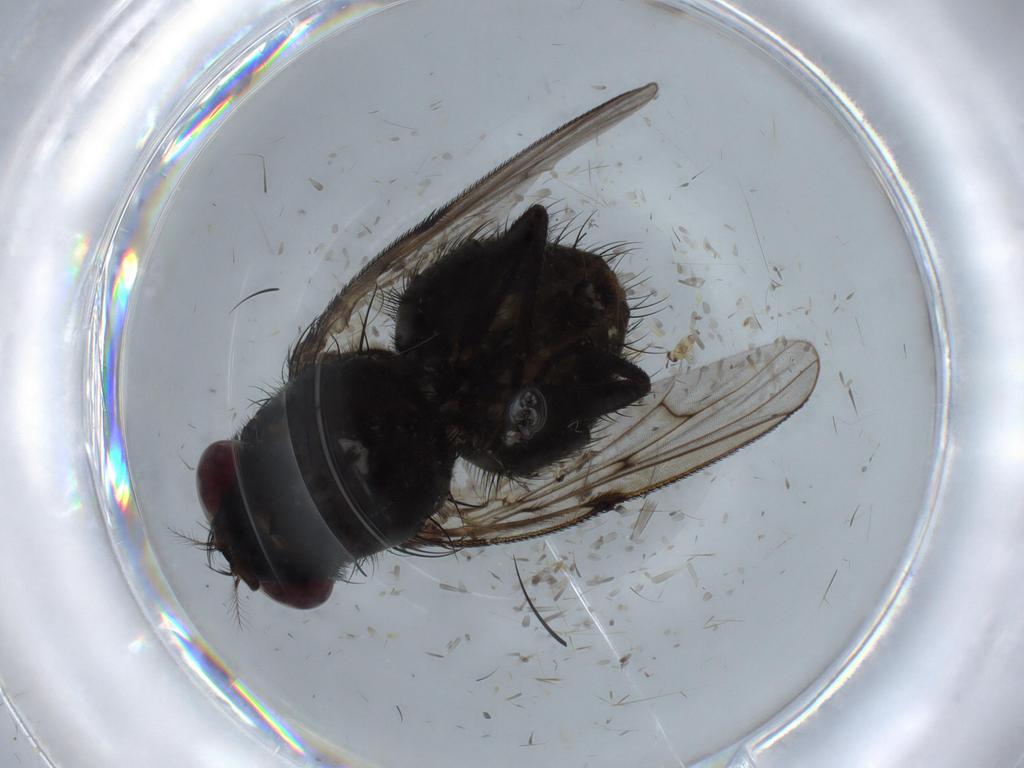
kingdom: Animalia
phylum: Arthropoda
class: Insecta
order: Diptera
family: Muscidae
